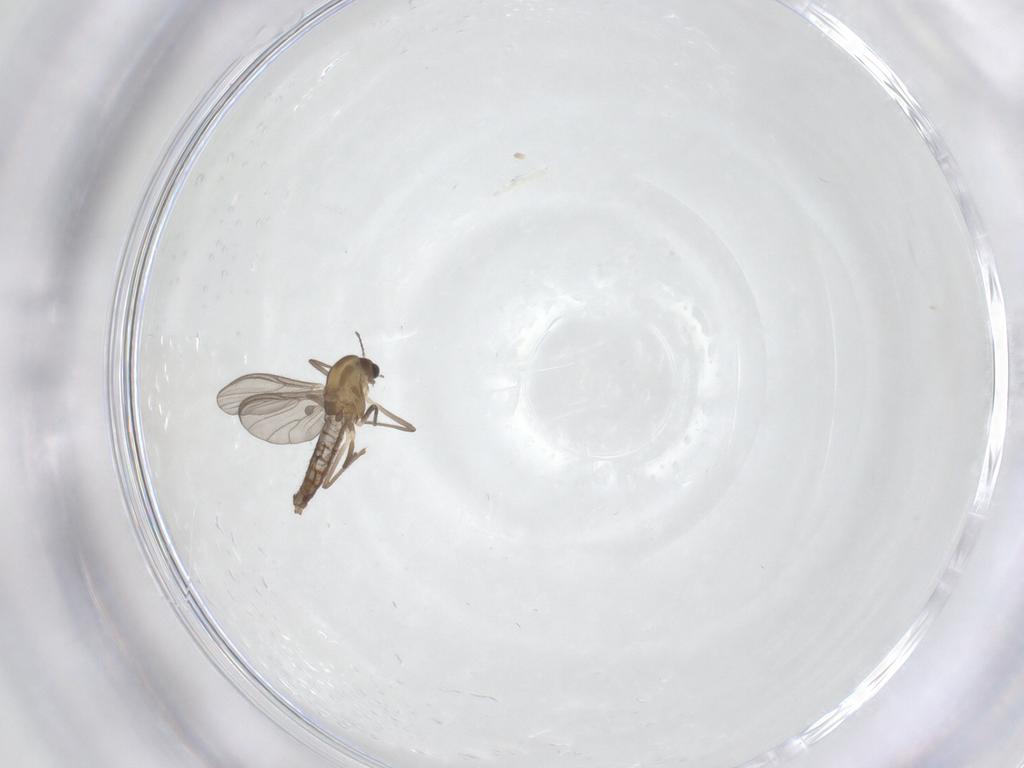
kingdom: Animalia
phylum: Arthropoda
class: Insecta
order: Diptera
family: Chironomidae
